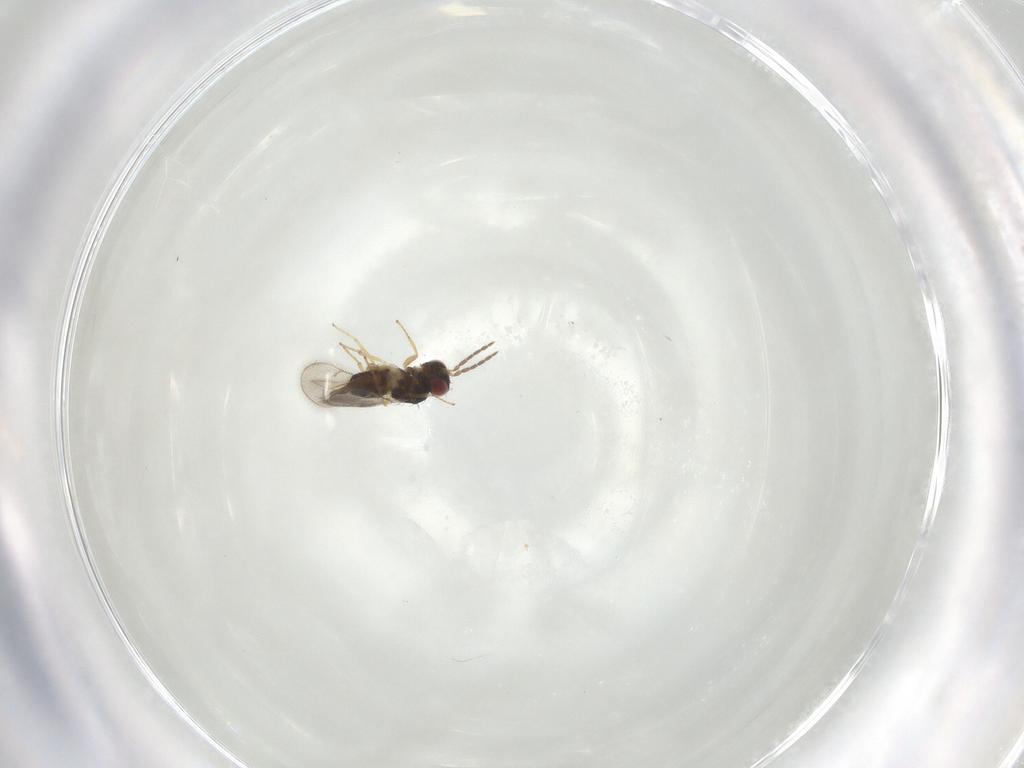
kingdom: Animalia
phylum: Arthropoda
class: Insecta
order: Hymenoptera
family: Eulophidae
